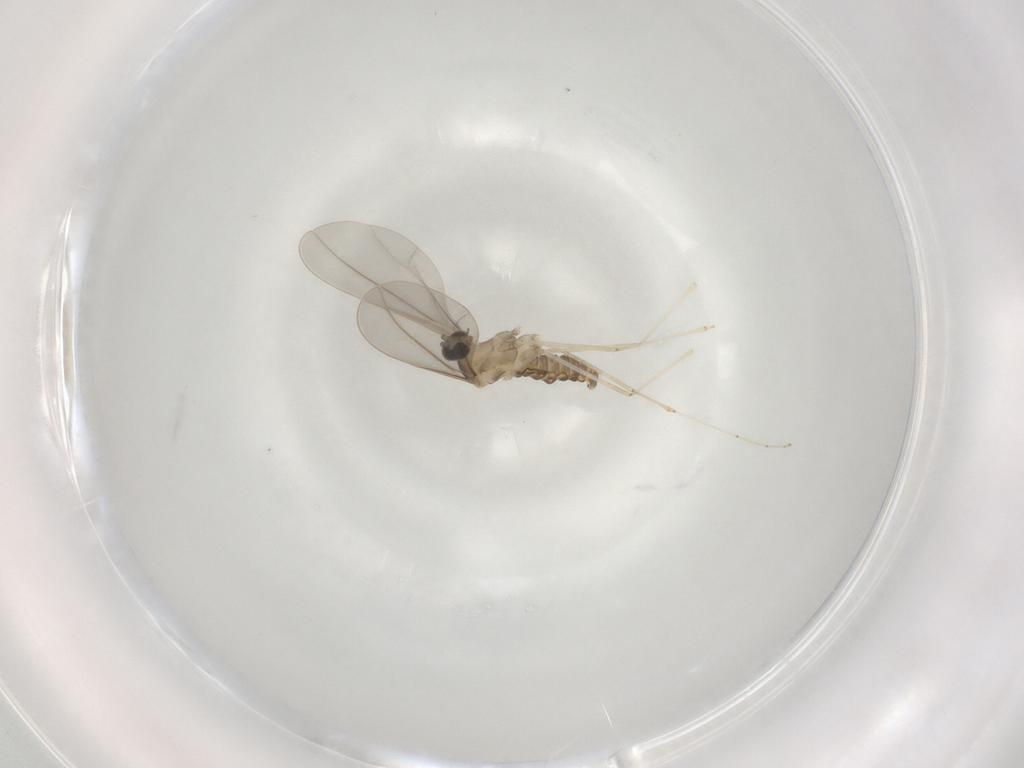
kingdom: Animalia
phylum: Arthropoda
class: Insecta
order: Diptera
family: Cecidomyiidae
